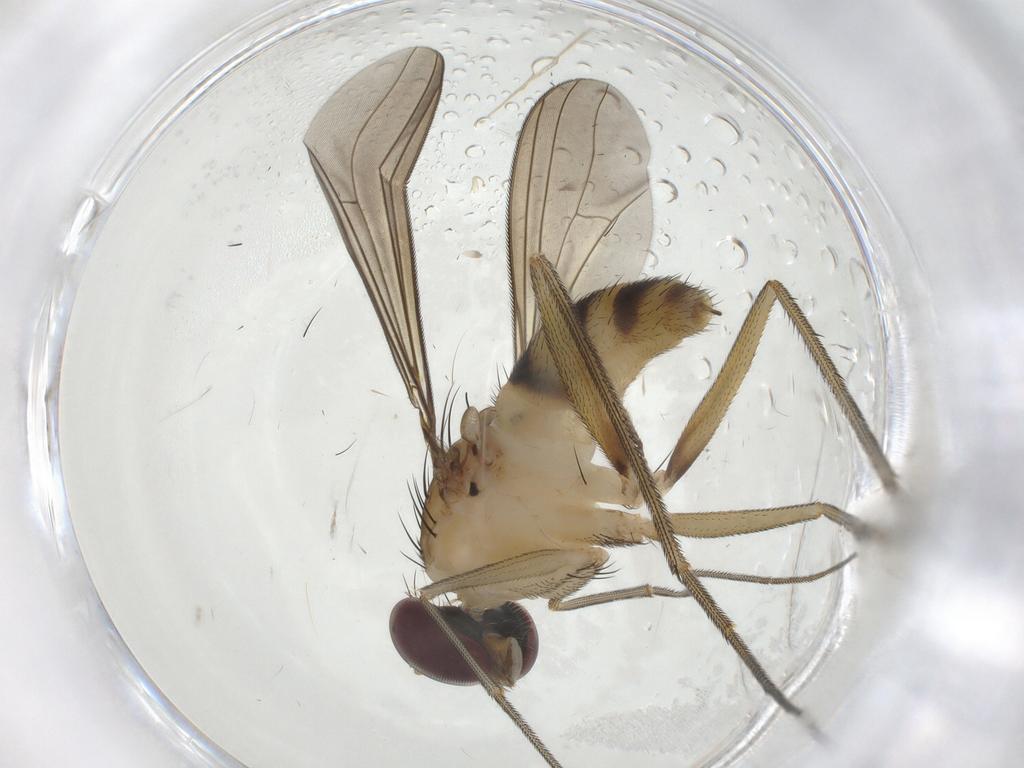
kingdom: Animalia
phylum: Arthropoda
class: Insecta
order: Diptera
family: Dolichopodidae
